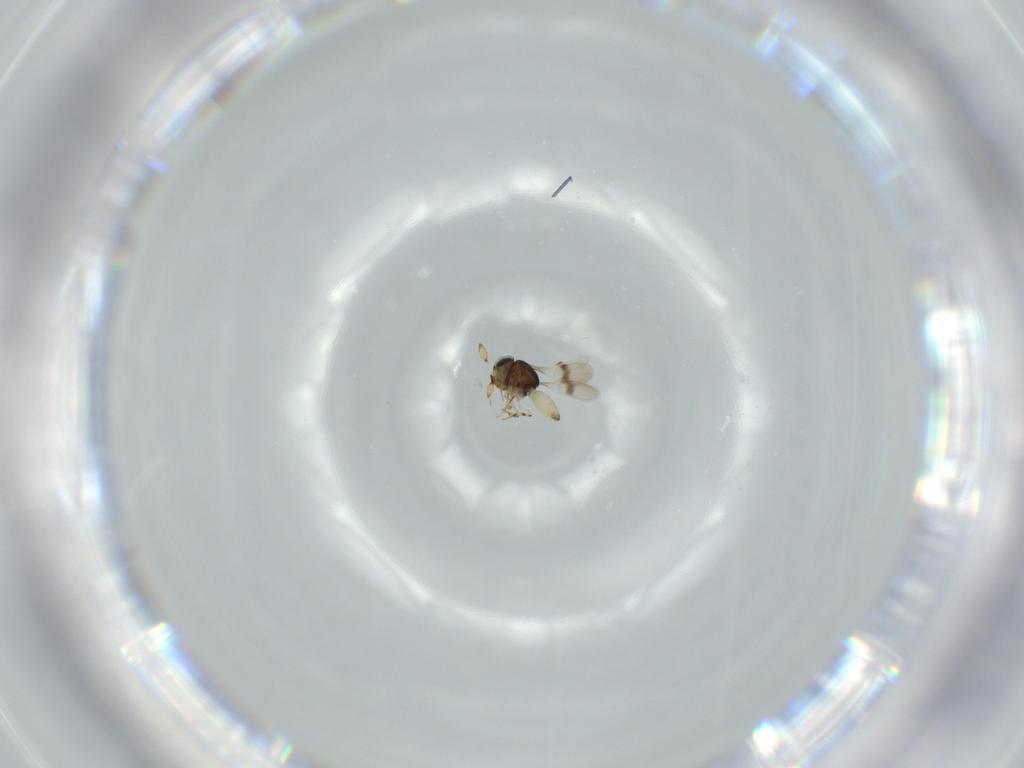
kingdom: Animalia
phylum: Arthropoda
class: Insecta
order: Hymenoptera
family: Scelionidae
